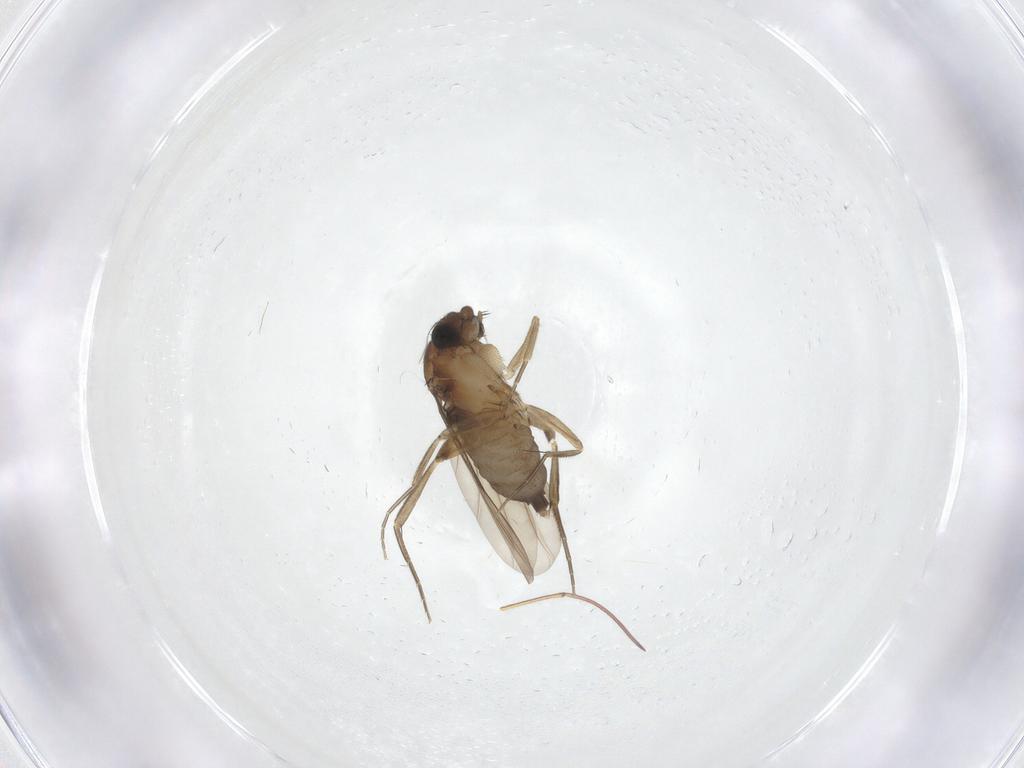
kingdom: Animalia
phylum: Arthropoda
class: Insecta
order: Diptera
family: Phoridae
